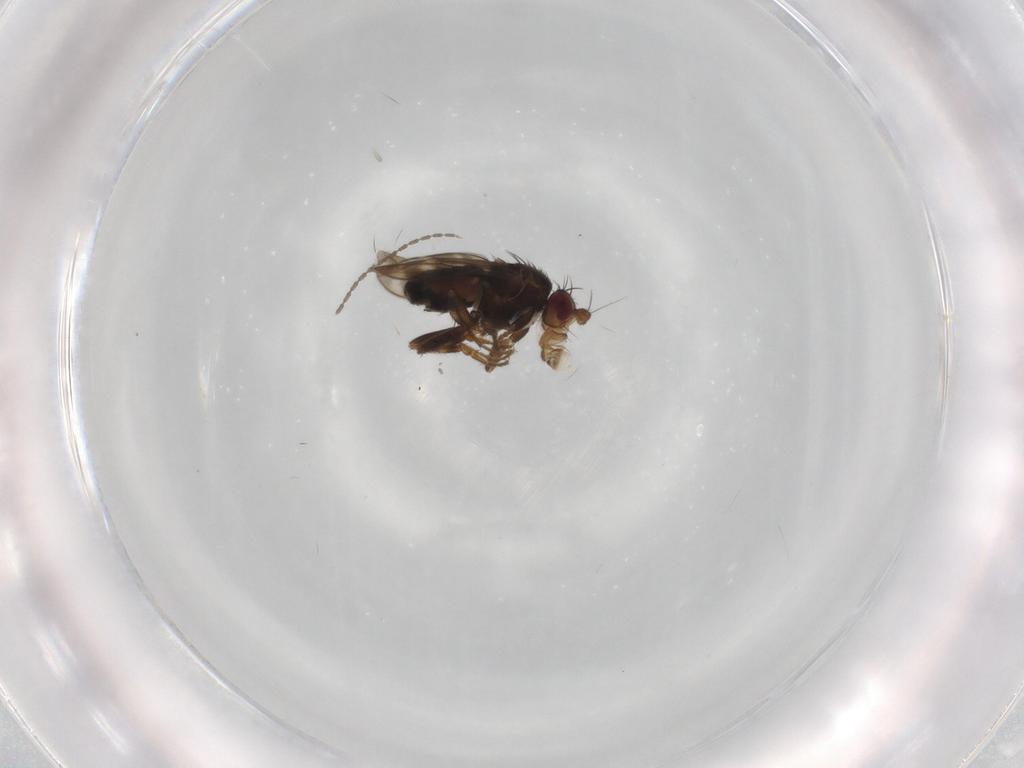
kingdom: Animalia
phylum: Arthropoda
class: Insecta
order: Diptera
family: Sphaeroceridae
